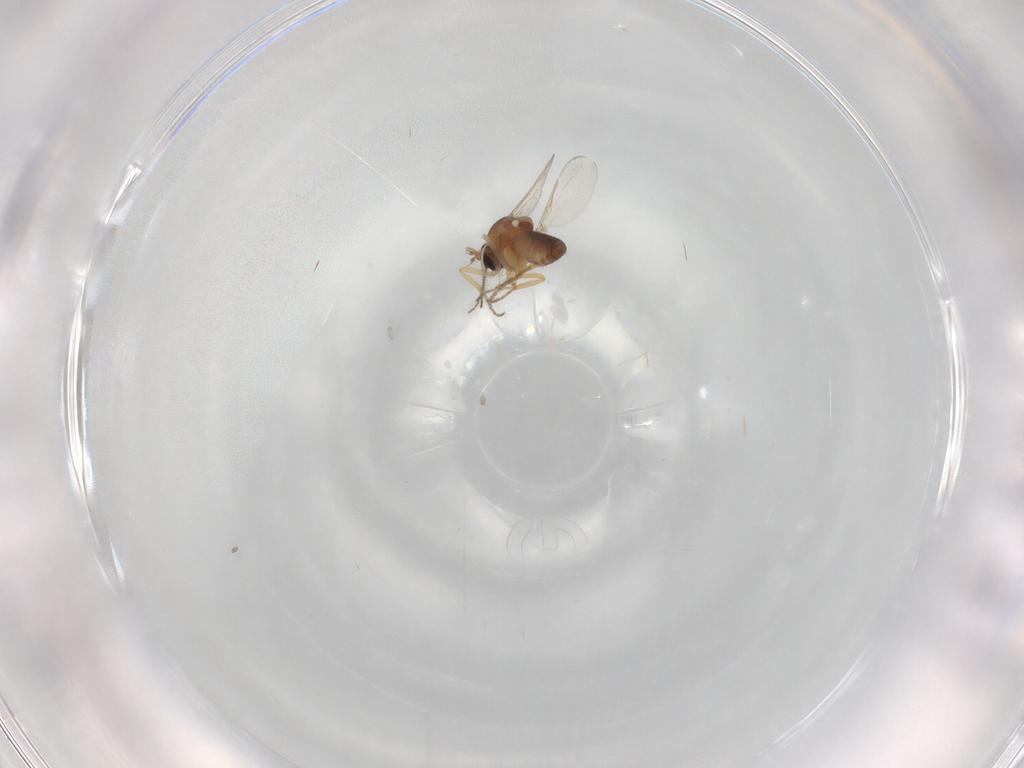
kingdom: Animalia
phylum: Arthropoda
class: Insecta
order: Diptera
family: Ceratopogonidae
